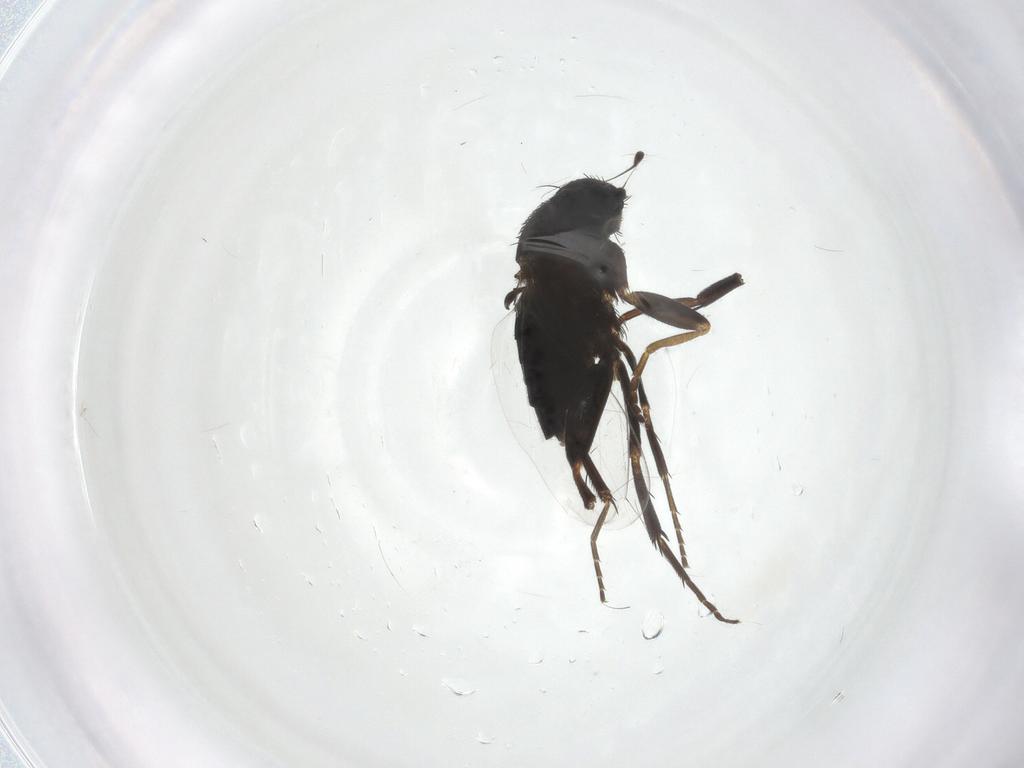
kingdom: Animalia
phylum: Arthropoda
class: Insecta
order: Diptera
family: Phoridae
